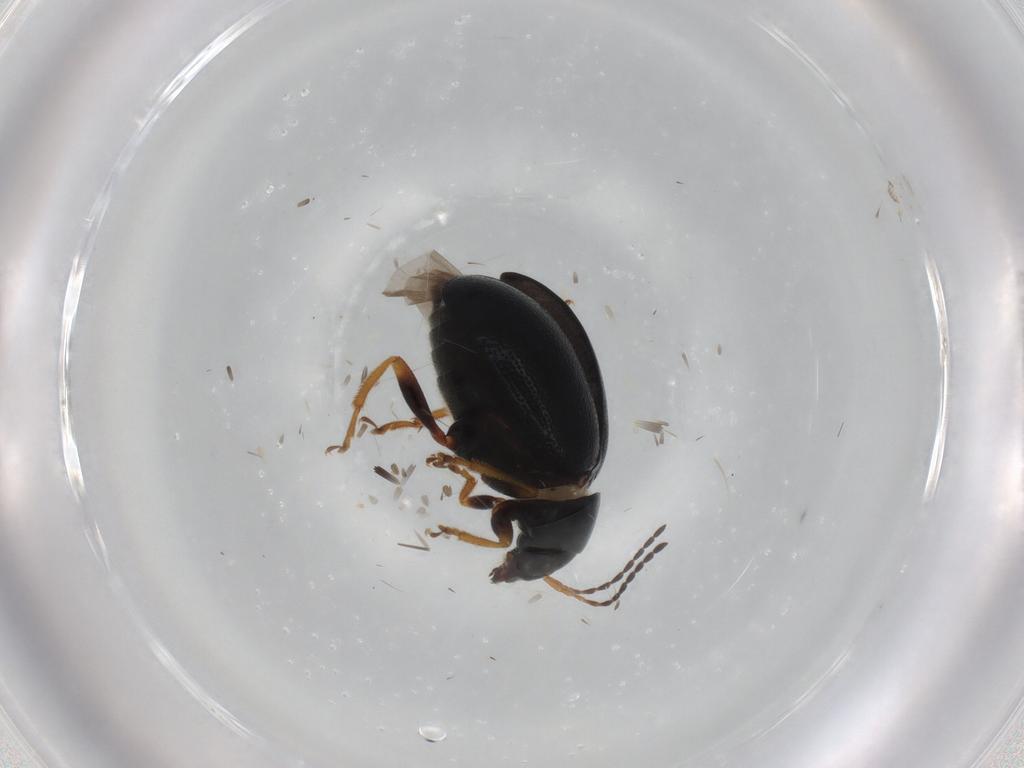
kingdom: Animalia
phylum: Arthropoda
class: Insecta
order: Coleoptera
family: Chrysomelidae
